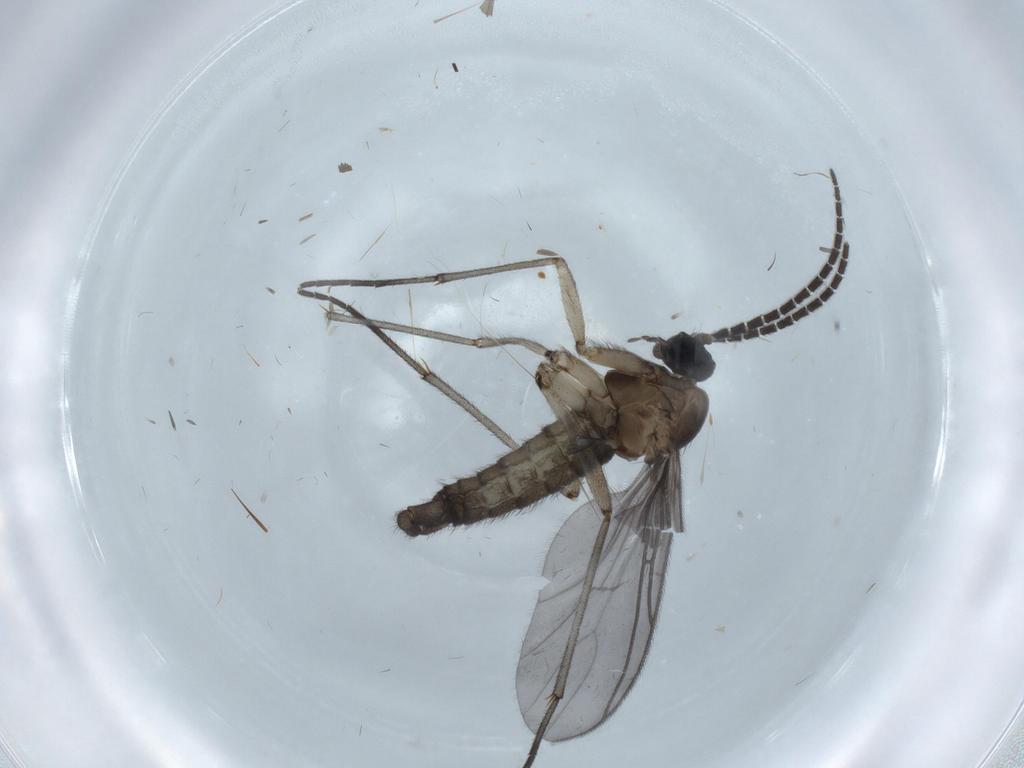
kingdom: Animalia
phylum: Arthropoda
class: Insecta
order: Diptera
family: Sciaridae
